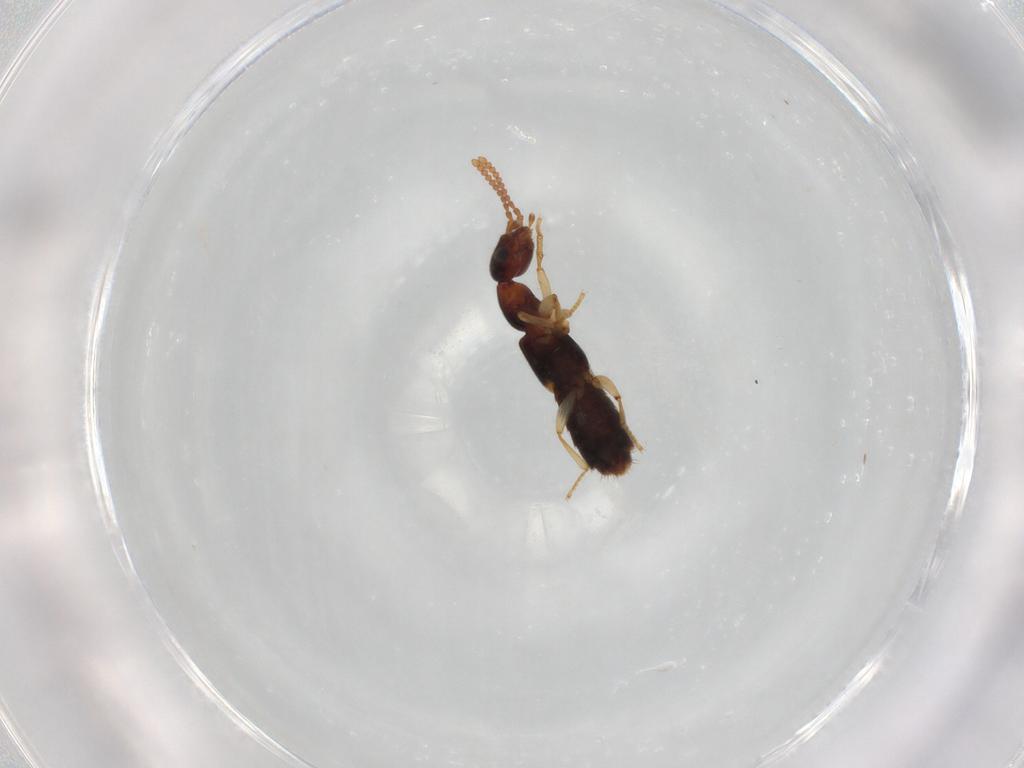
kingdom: Animalia
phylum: Arthropoda
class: Insecta
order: Coleoptera
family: Staphylinidae
